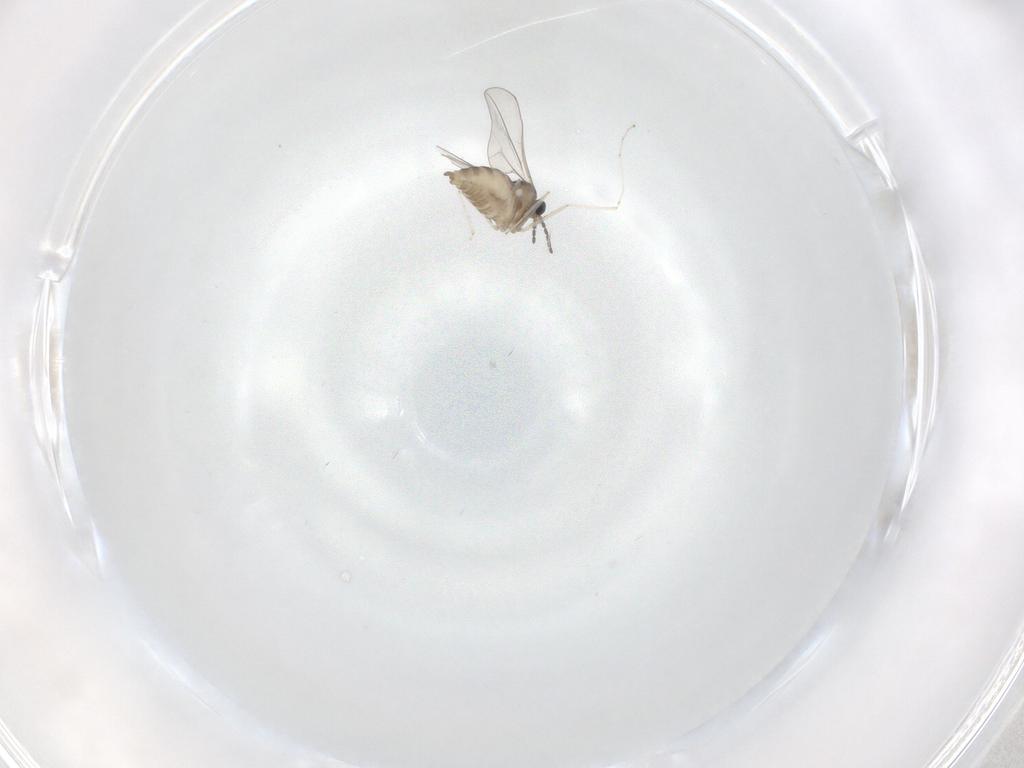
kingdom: Animalia
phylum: Arthropoda
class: Insecta
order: Diptera
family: Cecidomyiidae
